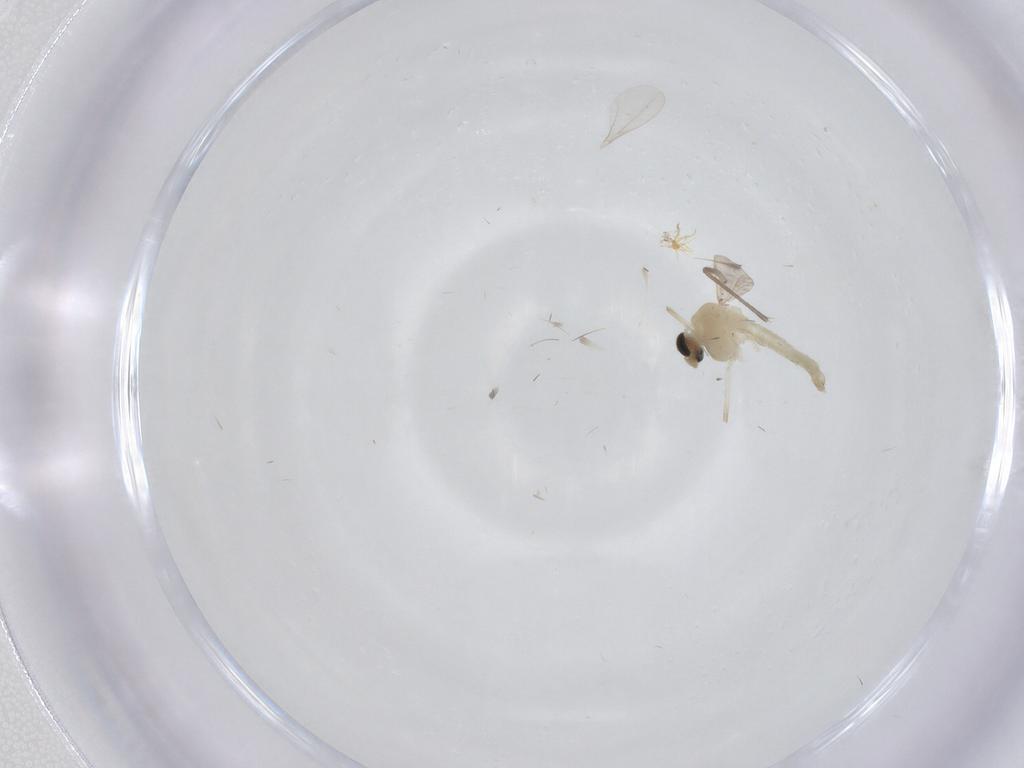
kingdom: Animalia
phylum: Arthropoda
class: Insecta
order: Diptera
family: Chironomidae
